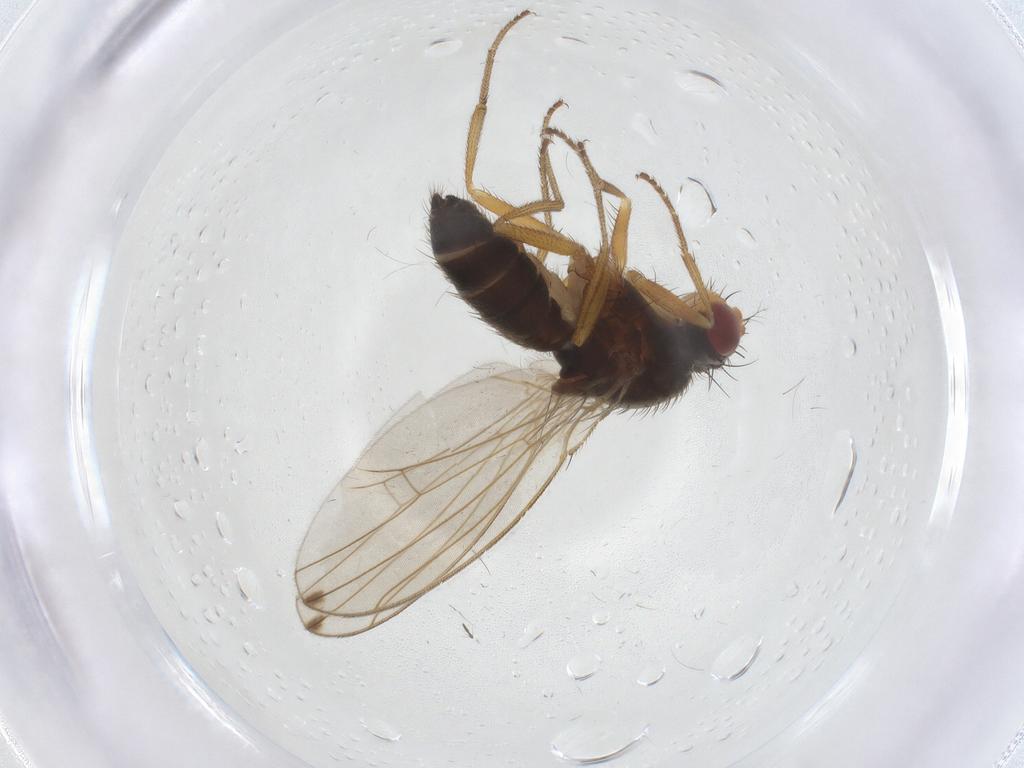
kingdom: Animalia
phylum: Arthropoda
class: Insecta
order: Diptera
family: Drosophilidae
